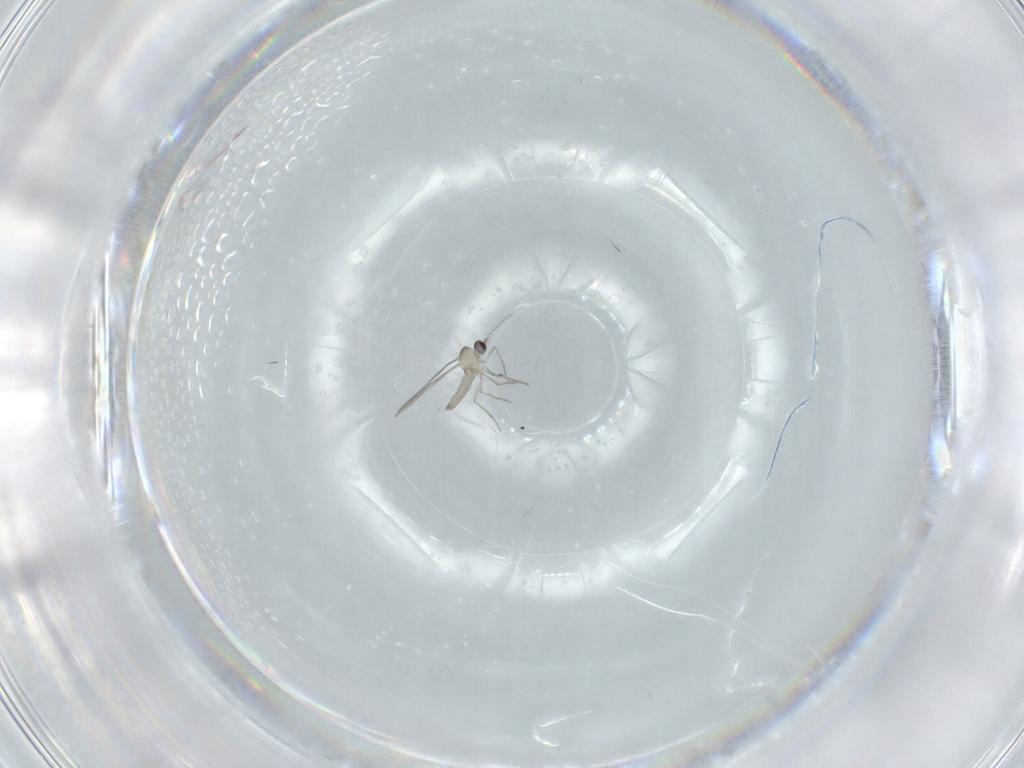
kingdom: Animalia
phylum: Arthropoda
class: Insecta
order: Diptera
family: Cecidomyiidae
